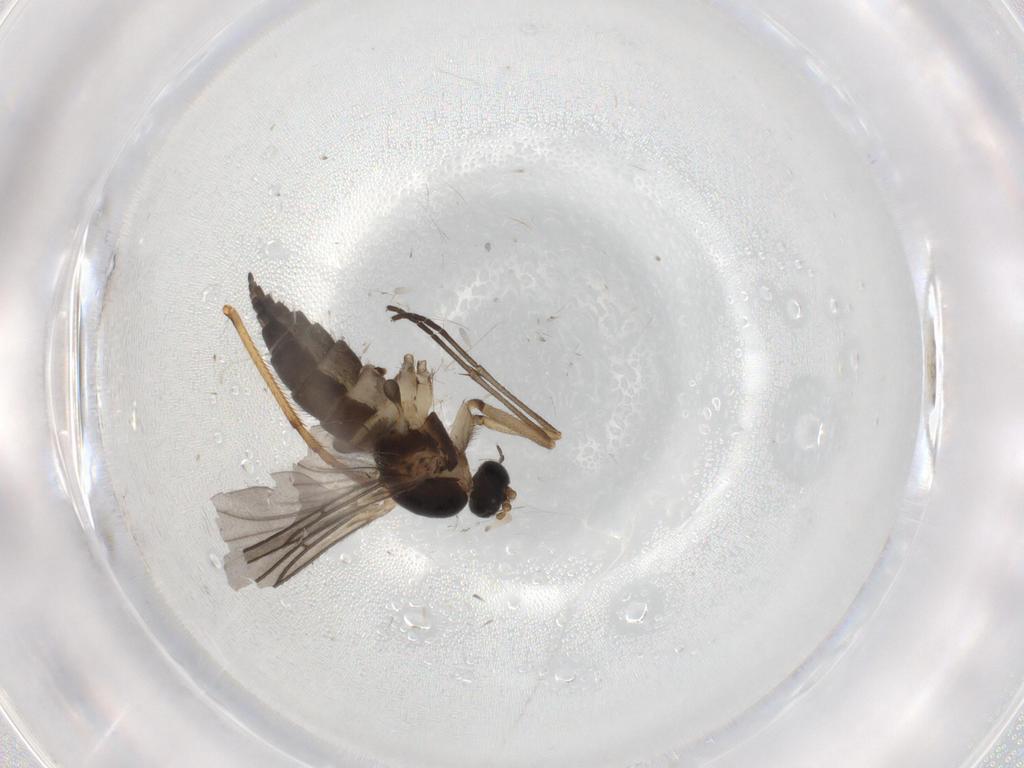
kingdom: Animalia
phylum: Arthropoda
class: Insecta
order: Diptera
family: Sciaridae
